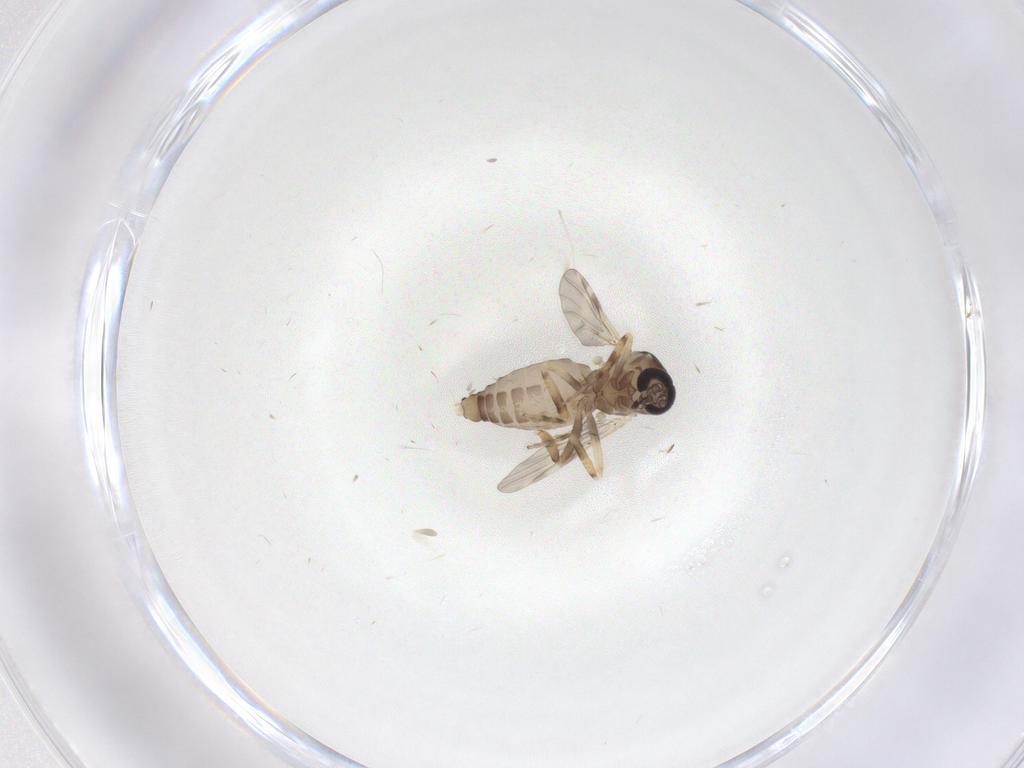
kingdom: Animalia
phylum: Arthropoda
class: Insecta
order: Diptera
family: Ceratopogonidae
